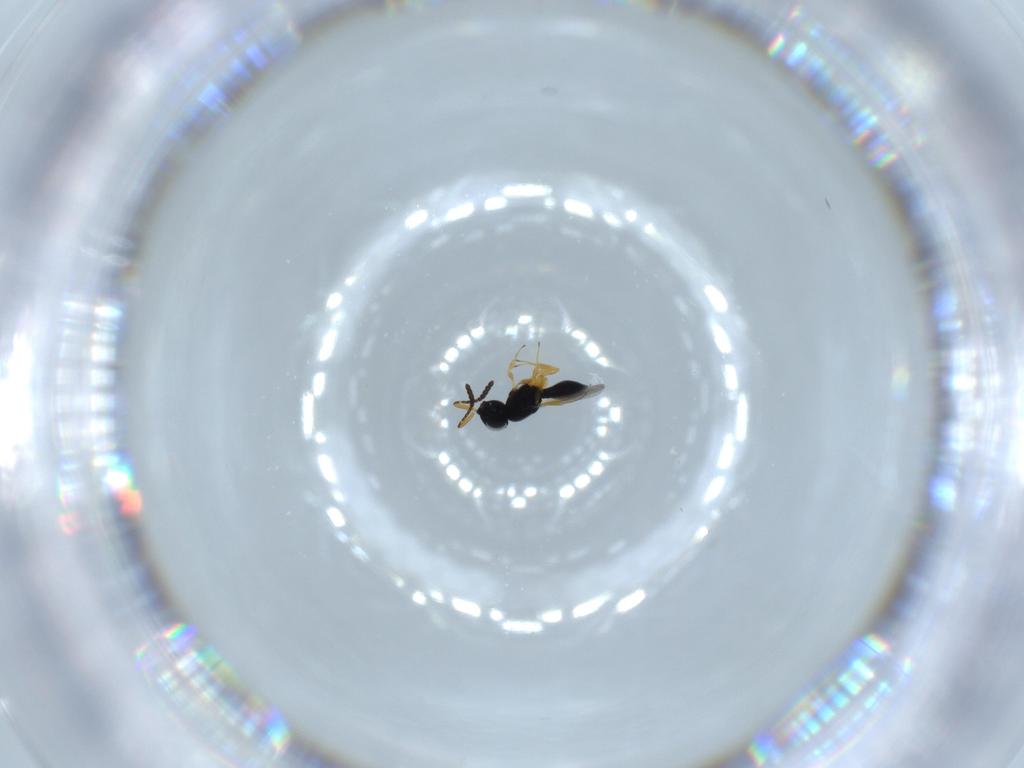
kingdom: Animalia
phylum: Arthropoda
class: Insecta
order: Hymenoptera
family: Scelionidae
